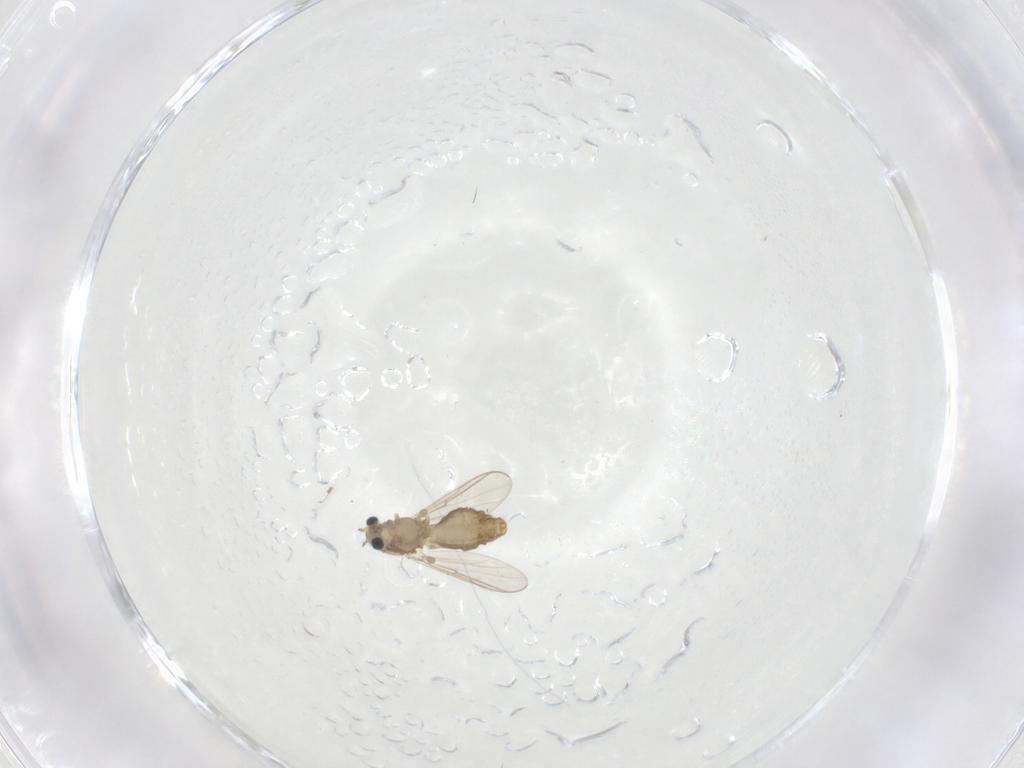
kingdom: Animalia
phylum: Arthropoda
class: Insecta
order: Diptera
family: Chironomidae
